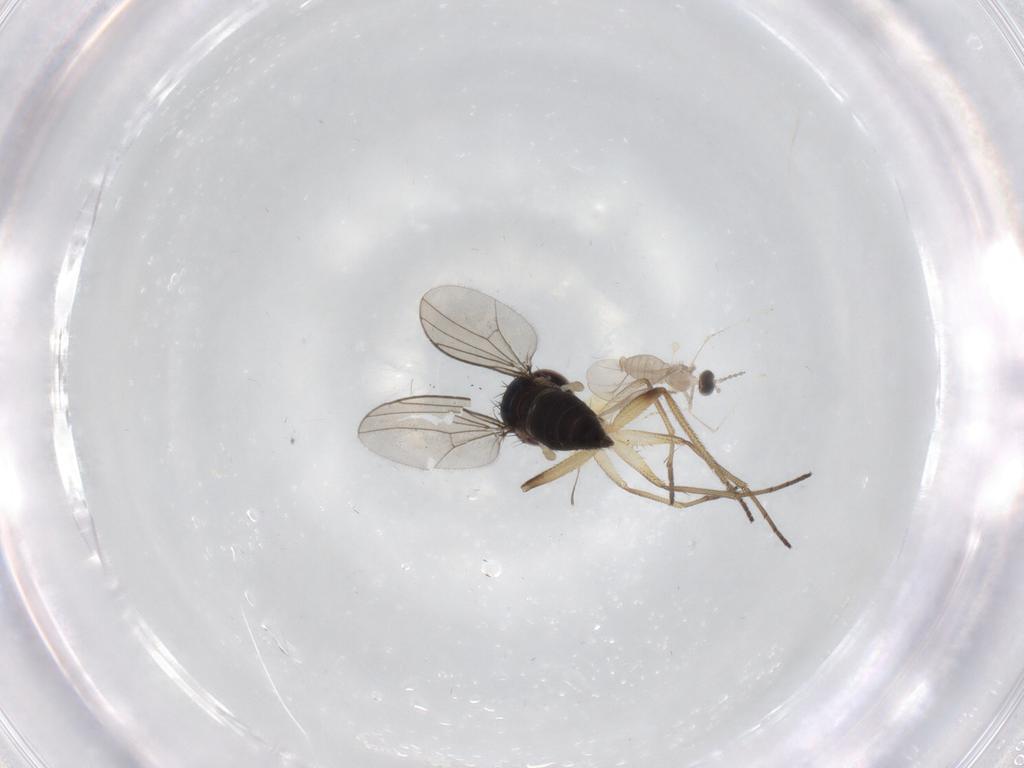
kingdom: Animalia
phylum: Arthropoda
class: Insecta
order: Diptera
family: Dolichopodidae
